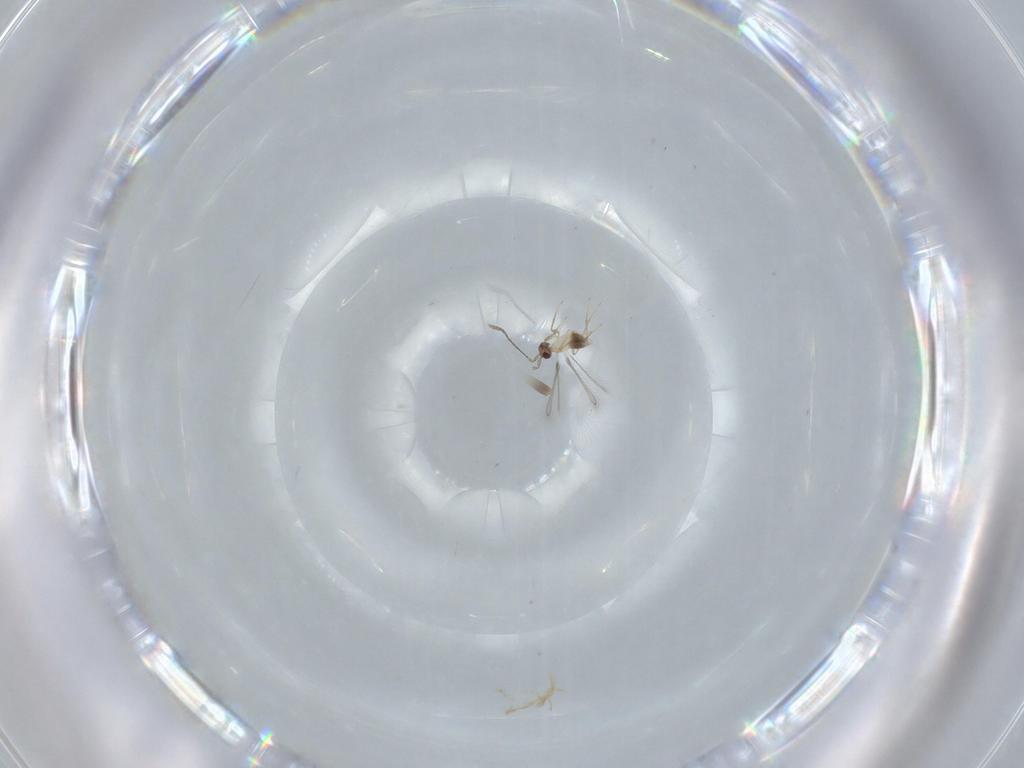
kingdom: Animalia
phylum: Arthropoda
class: Insecta
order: Hymenoptera
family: Mymaridae
